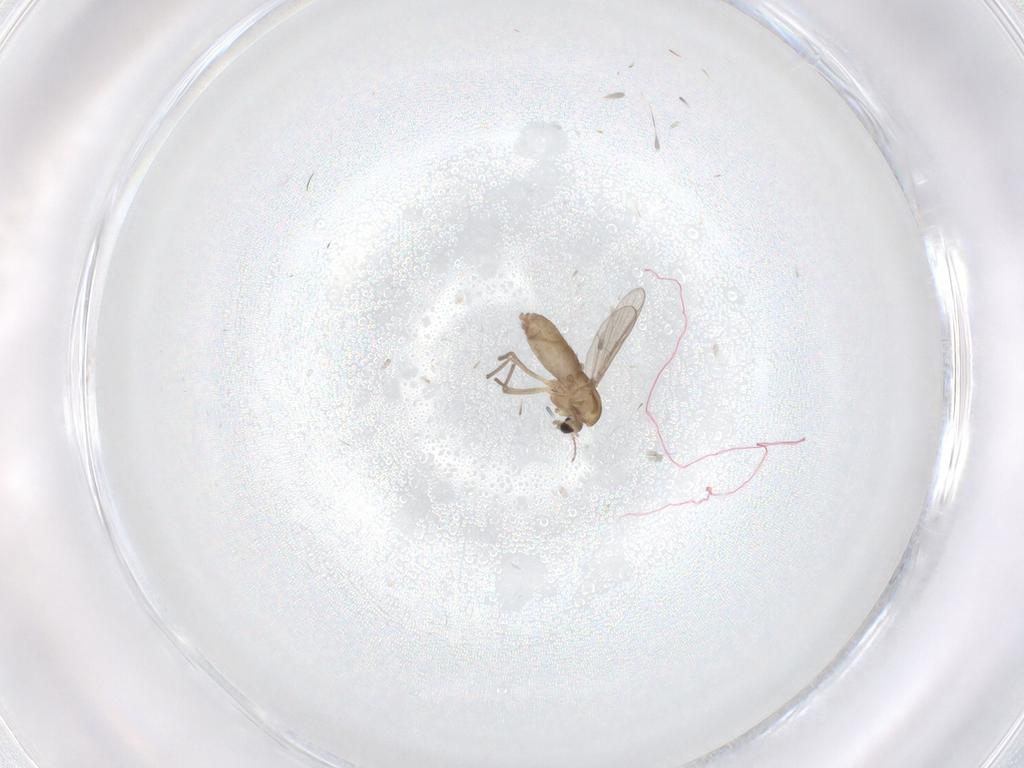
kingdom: Animalia
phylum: Arthropoda
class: Insecta
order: Diptera
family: Chironomidae
